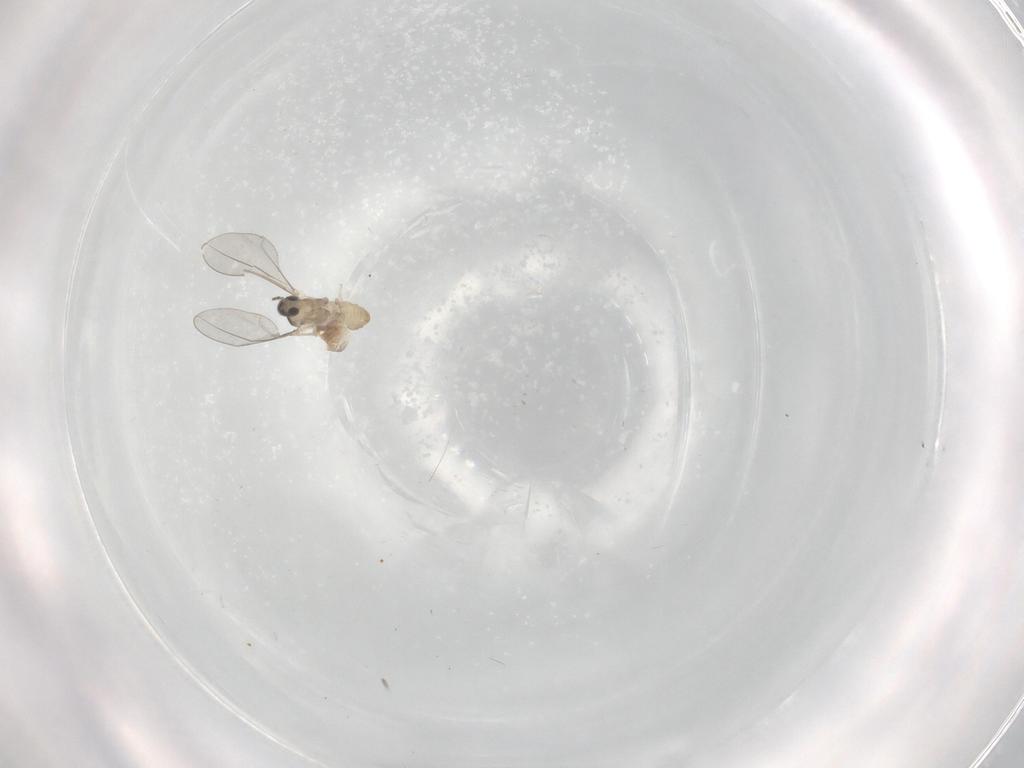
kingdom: Animalia
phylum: Arthropoda
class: Insecta
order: Diptera
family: Cecidomyiidae
